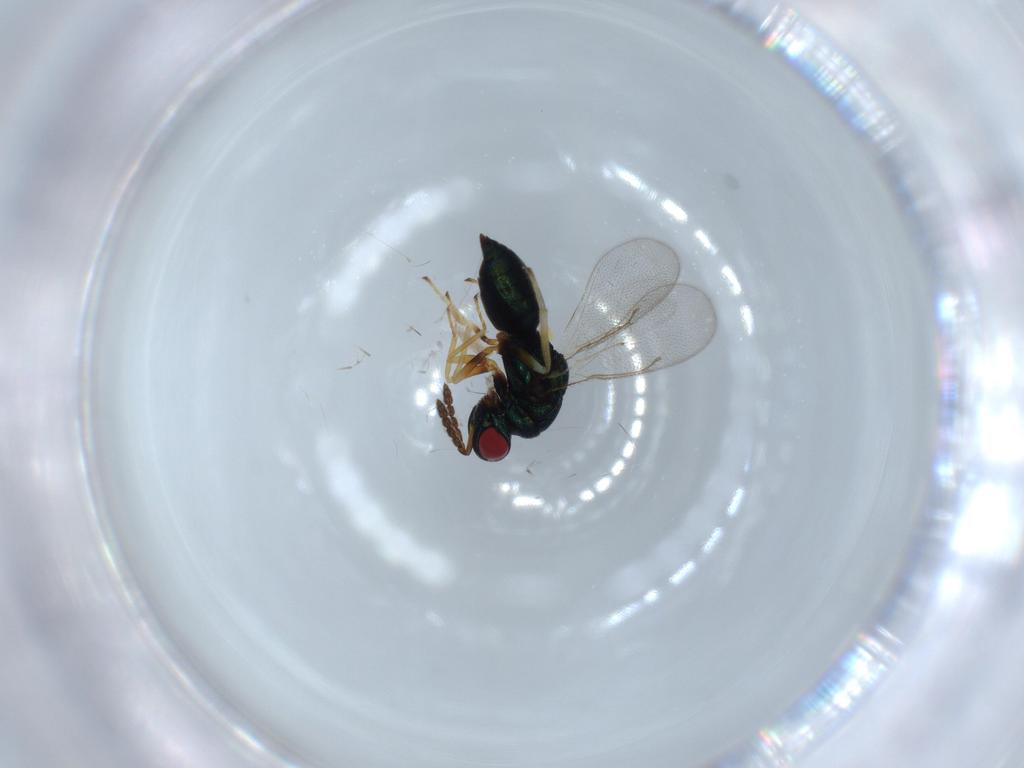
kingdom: Animalia
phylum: Arthropoda
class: Insecta
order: Hymenoptera
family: Eulophidae
